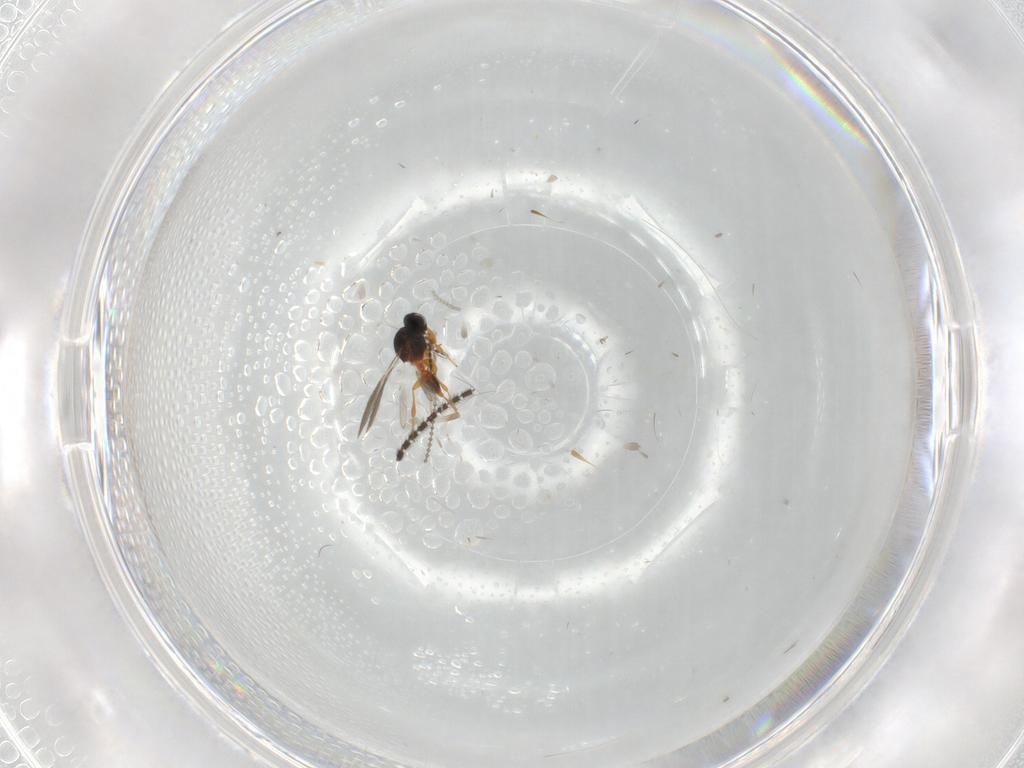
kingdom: Animalia
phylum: Arthropoda
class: Insecta
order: Hymenoptera
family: Platygastridae
